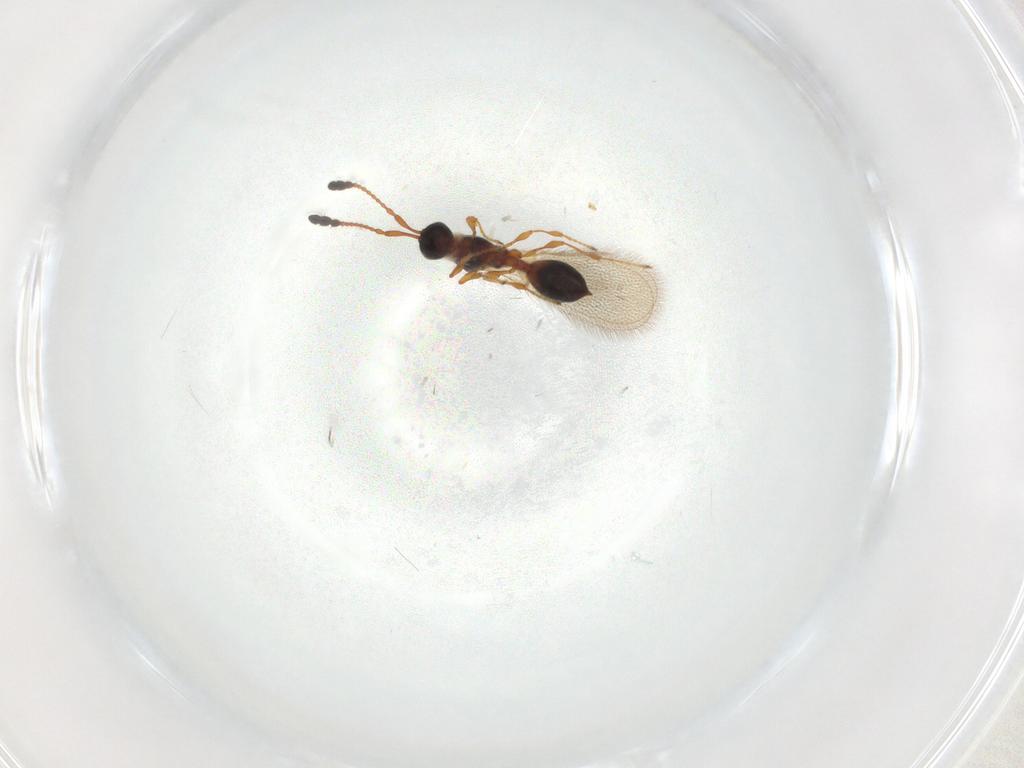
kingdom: Animalia
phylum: Arthropoda
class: Insecta
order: Hymenoptera
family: Diapriidae
